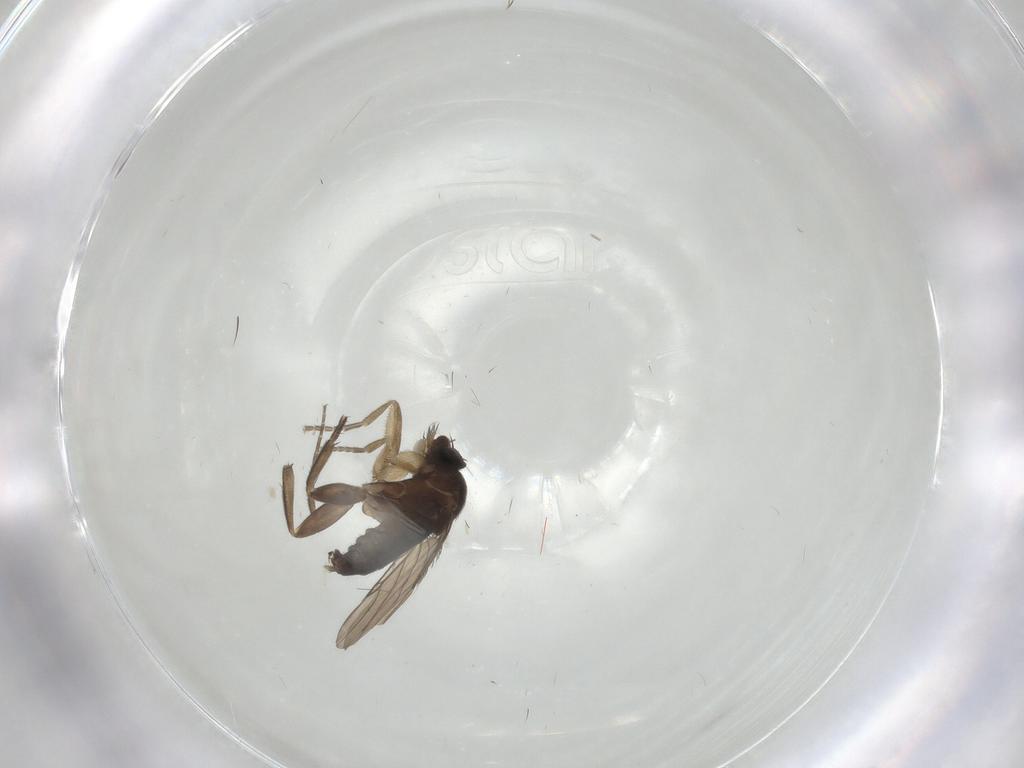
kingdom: Animalia
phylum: Arthropoda
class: Insecta
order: Diptera
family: Phoridae
